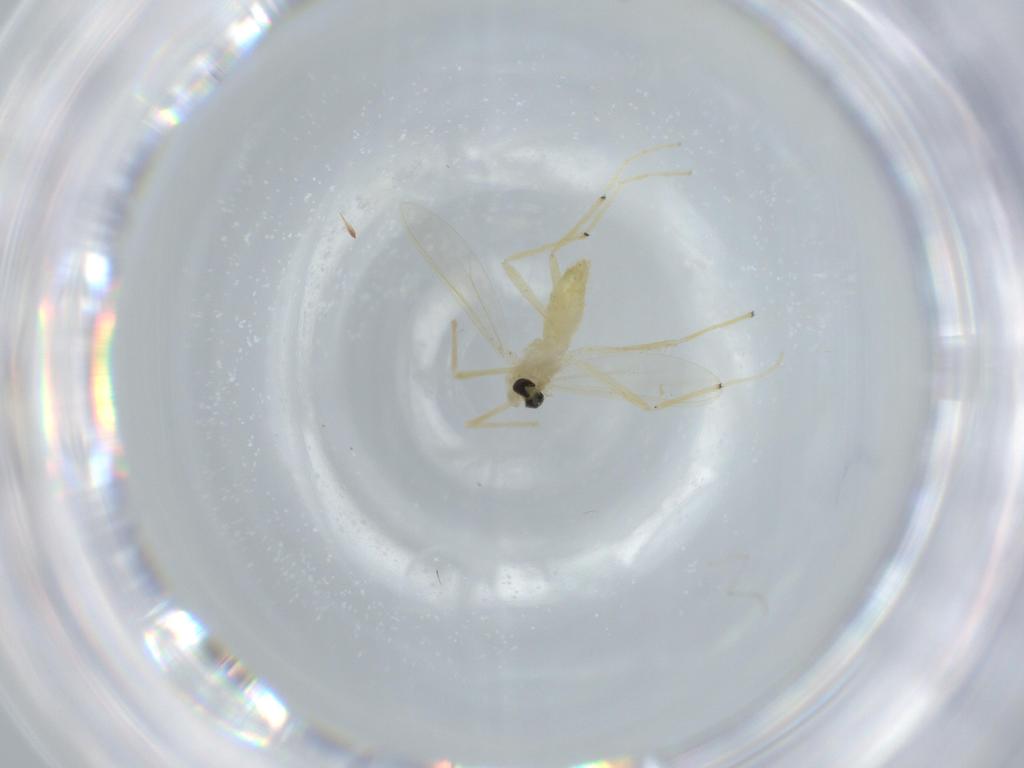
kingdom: Animalia
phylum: Arthropoda
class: Insecta
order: Diptera
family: Chironomidae
